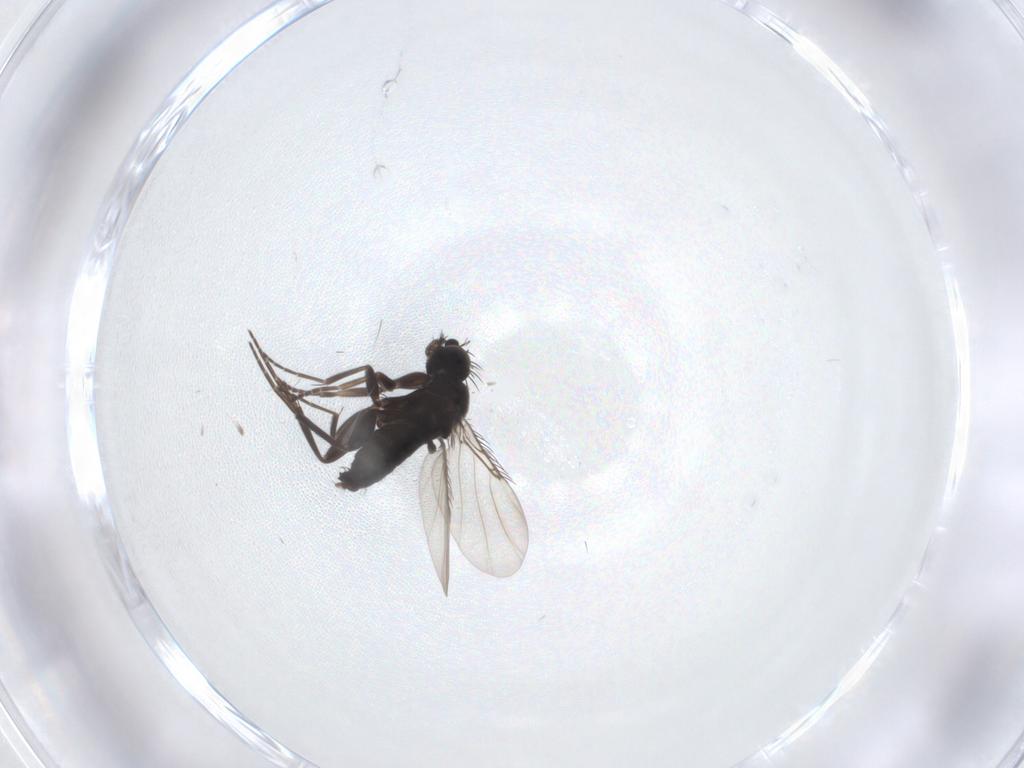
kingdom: Animalia
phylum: Arthropoda
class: Insecta
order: Diptera
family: Phoridae
